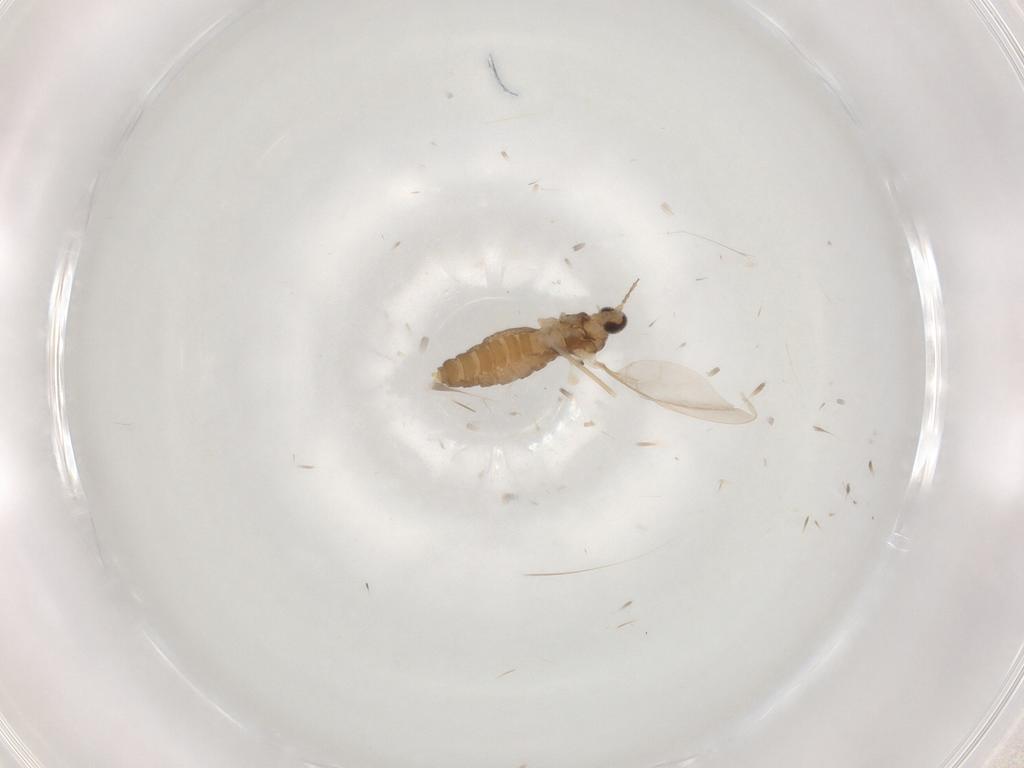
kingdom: Animalia
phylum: Arthropoda
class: Insecta
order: Diptera
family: Cecidomyiidae
